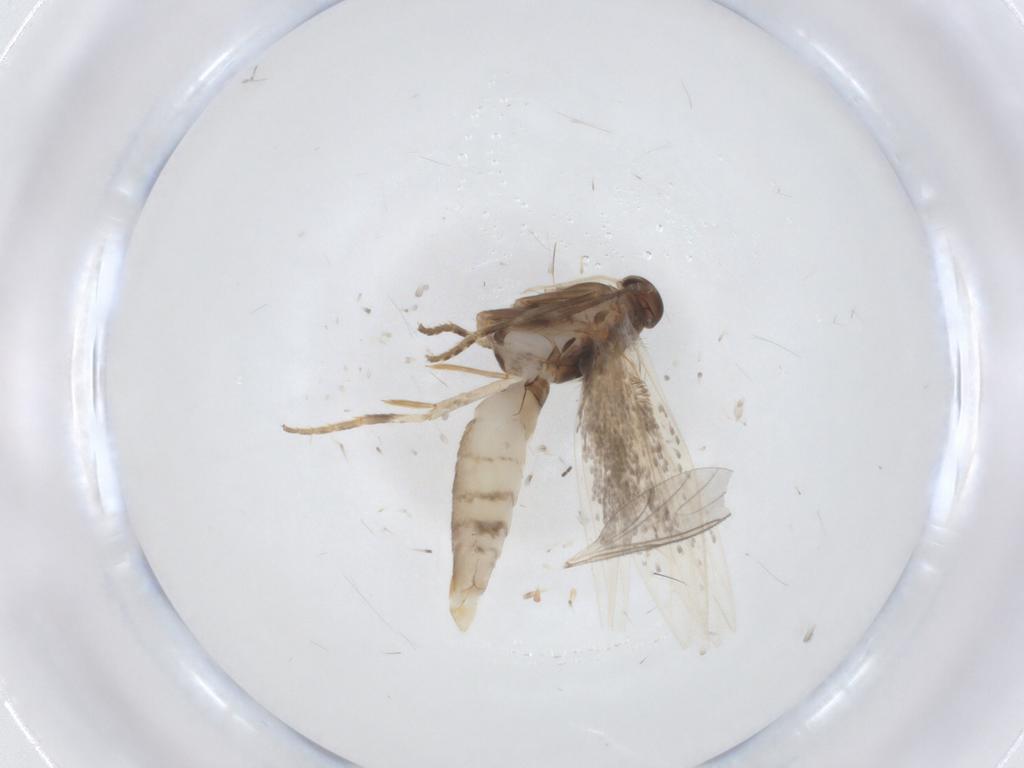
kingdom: Animalia
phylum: Arthropoda
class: Insecta
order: Lepidoptera
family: Elachistidae
